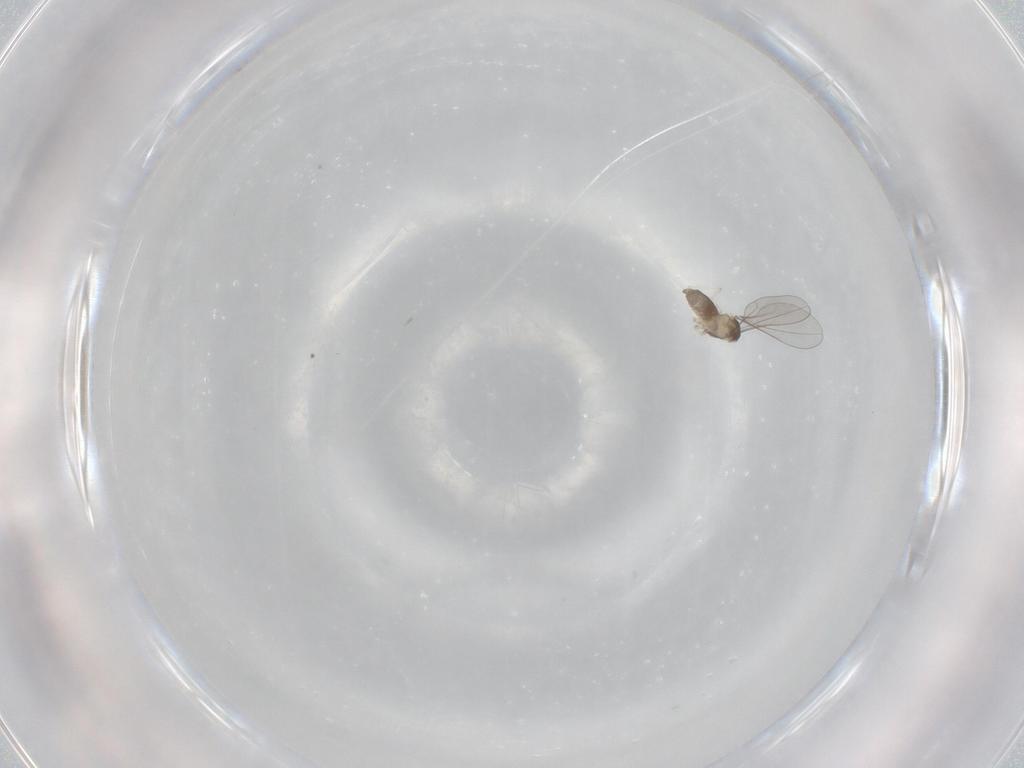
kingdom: Animalia
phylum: Arthropoda
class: Insecta
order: Diptera
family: Cecidomyiidae
